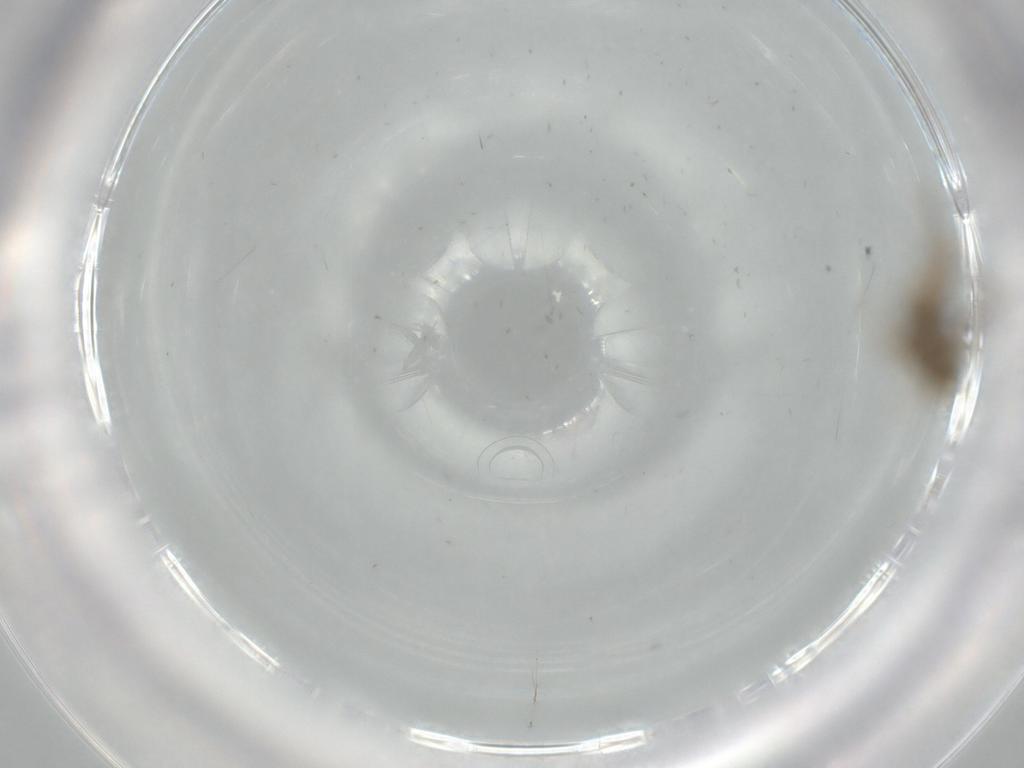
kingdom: Animalia
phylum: Arthropoda
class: Insecta
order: Lepidoptera
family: Nepticulidae
